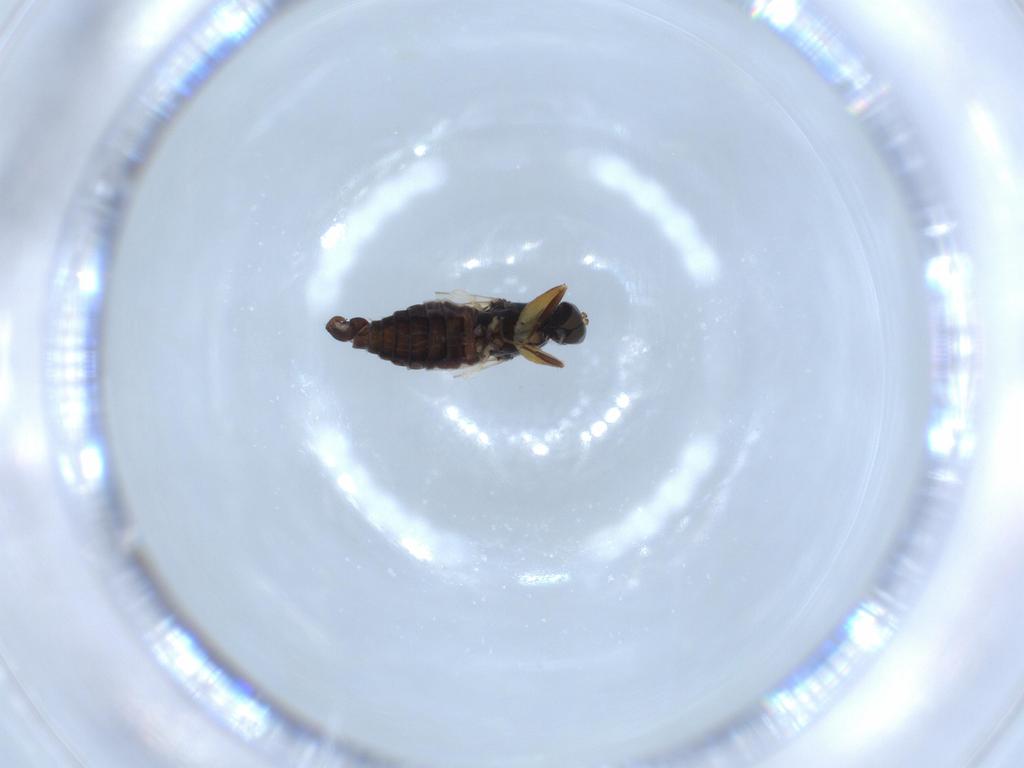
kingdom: Animalia
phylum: Arthropoda
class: Insecta
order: Diptera
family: Hybotidae
